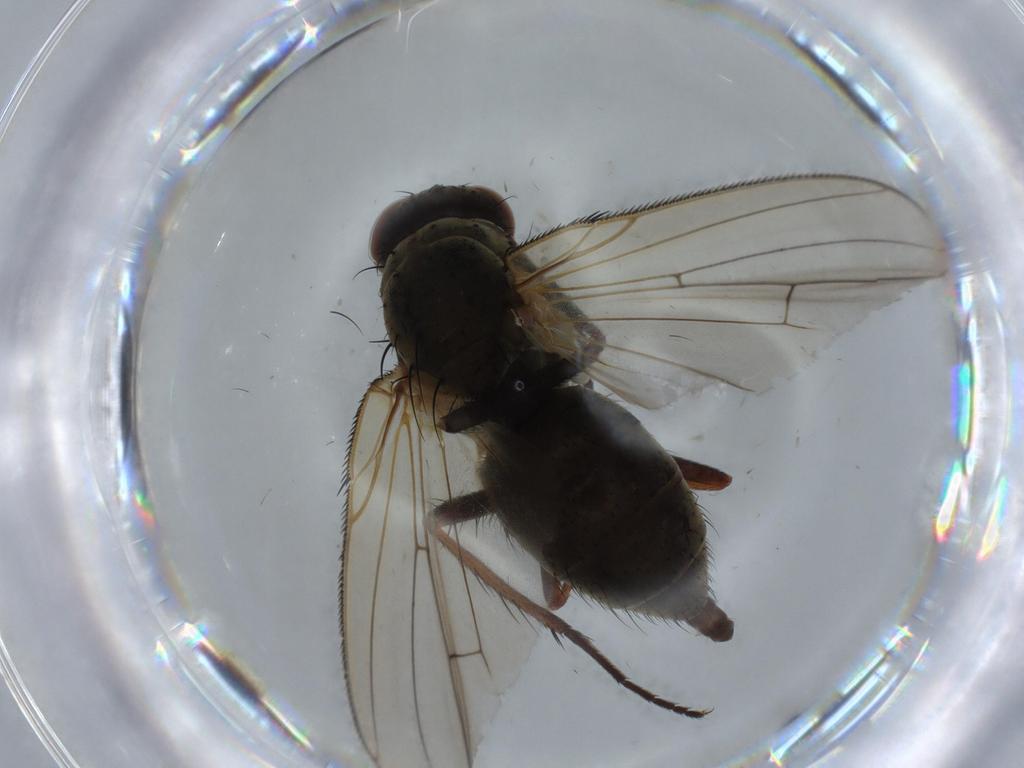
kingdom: Animalia
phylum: Arthropoda
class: Insecta
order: Diptera
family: Anthomyiidae
